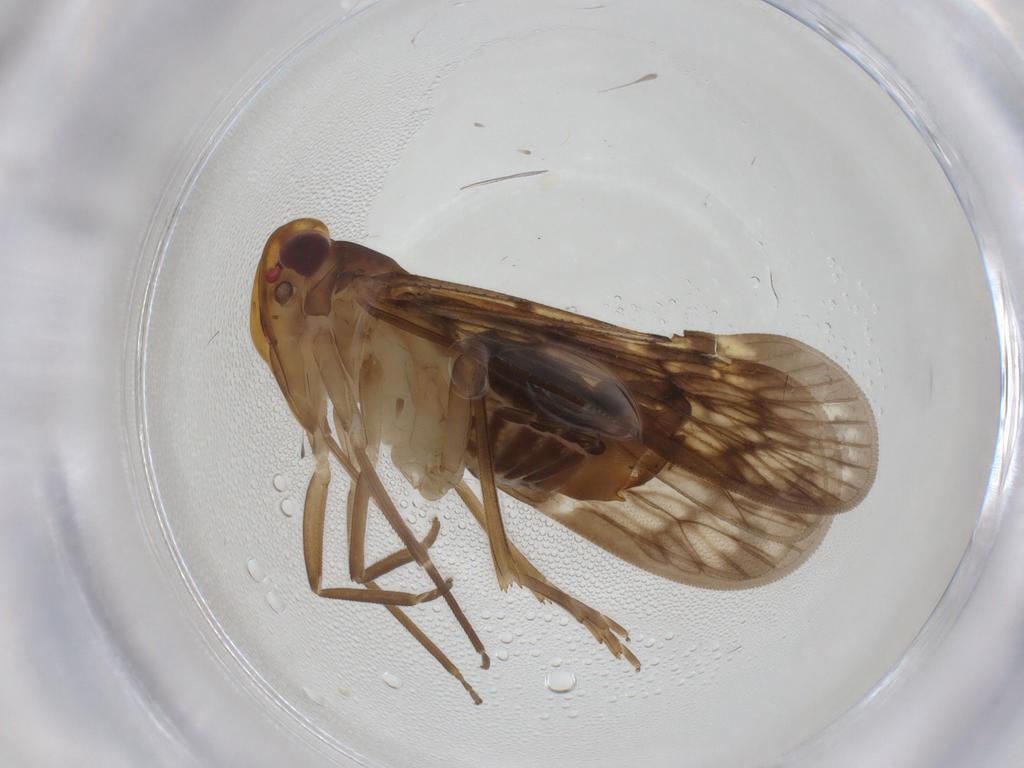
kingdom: Animalia
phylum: Arthropoda
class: Insecta
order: Hemiptera
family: Cixiidae
